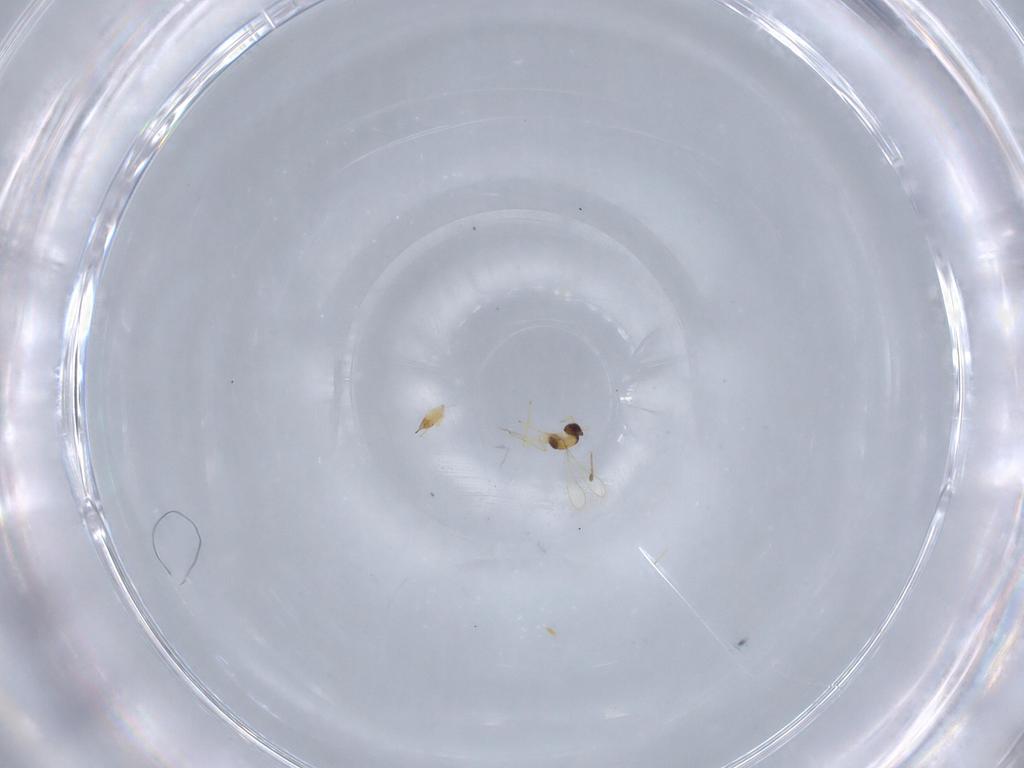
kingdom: Animalia
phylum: Arthropoda
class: Insecta
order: Hymenoptera
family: Mymaridae
